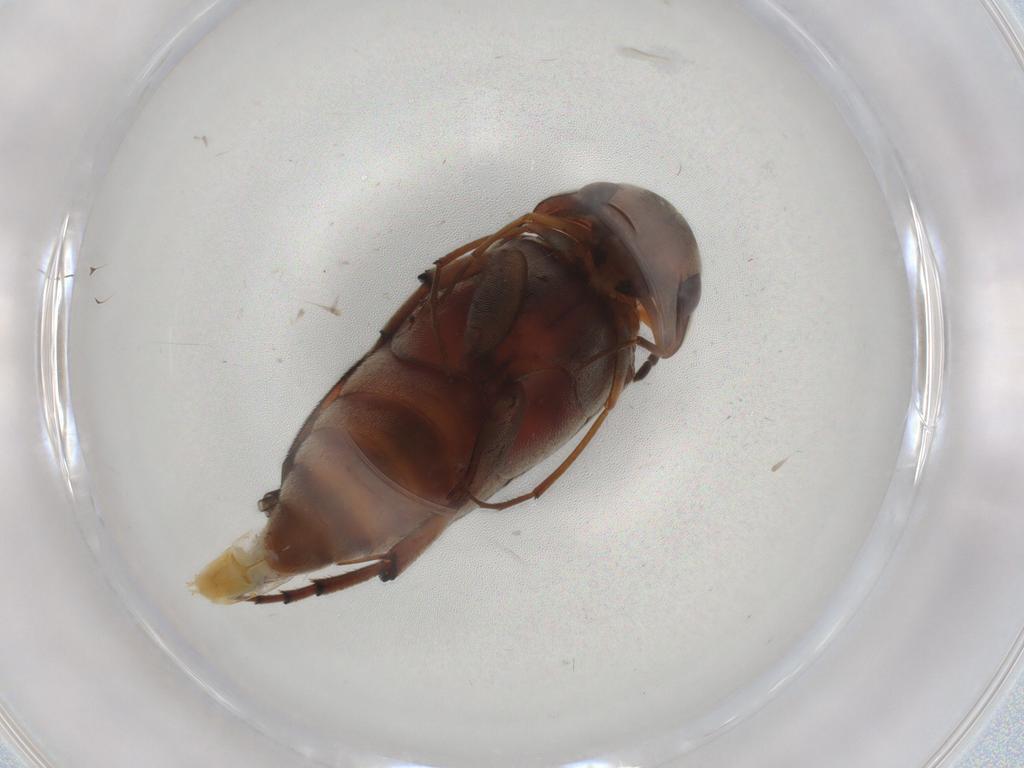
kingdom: Animalia
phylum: Arthropoda
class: Insecta
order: Coleoptera
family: Mordellidae
